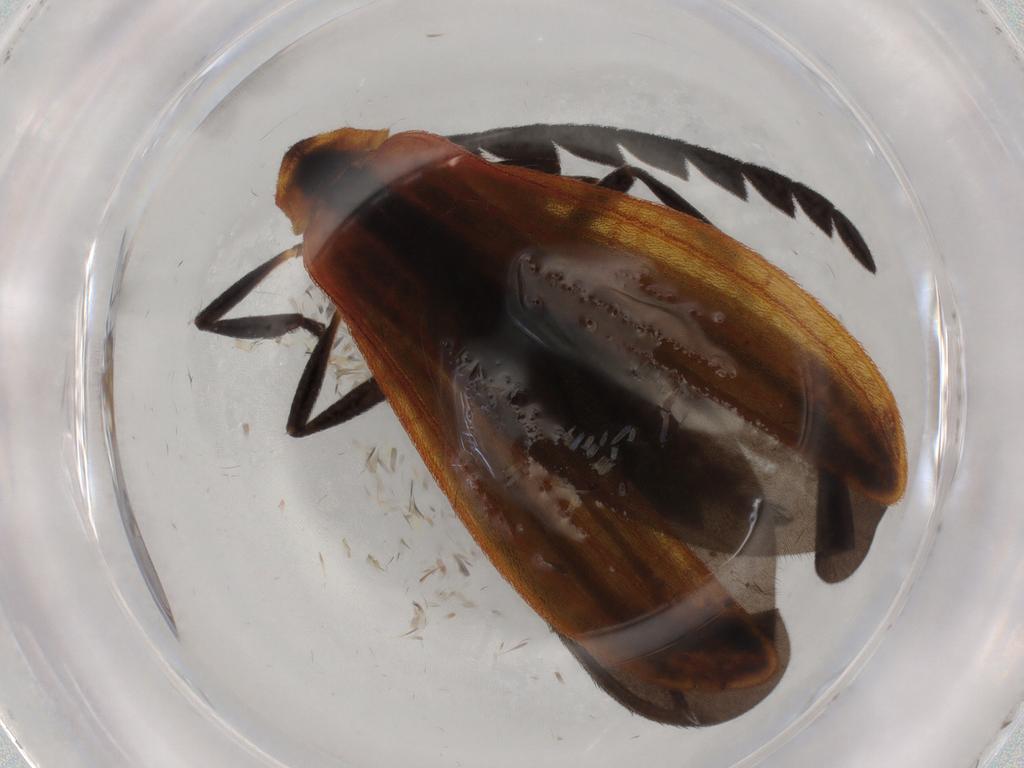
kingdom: Animalia
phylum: Arthropoda
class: Insecta
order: Coleoptera
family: Lycidae
